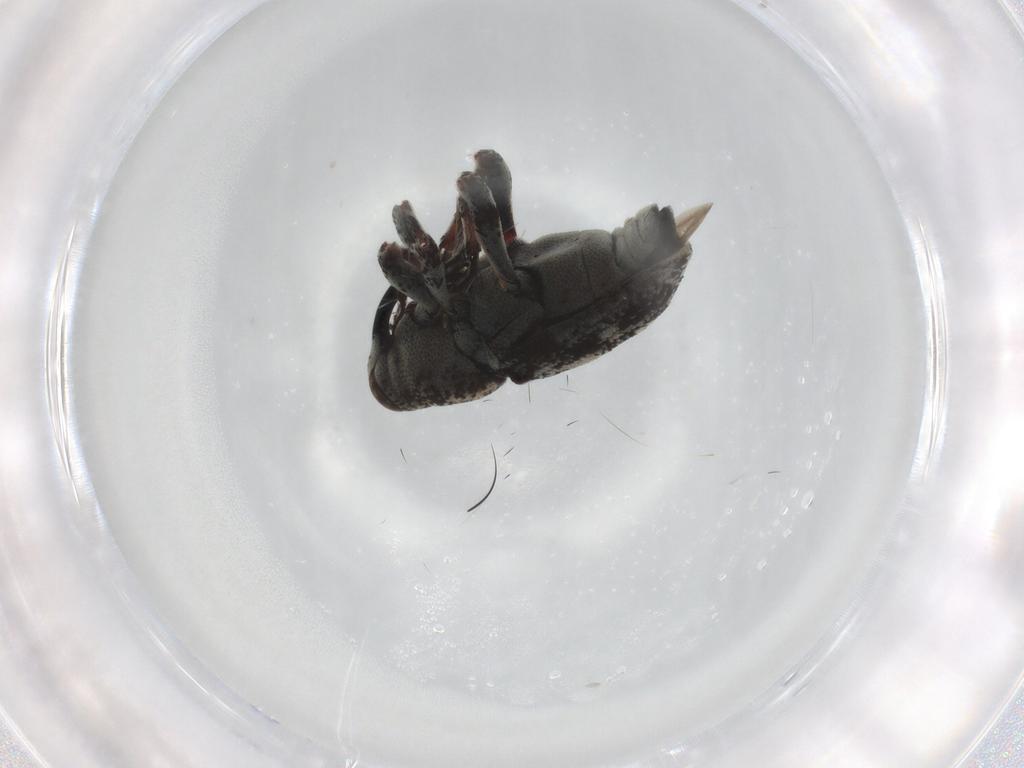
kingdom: Animalia
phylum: Arthropoda
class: Insecta
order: Coleoptera
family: Curculionidae
